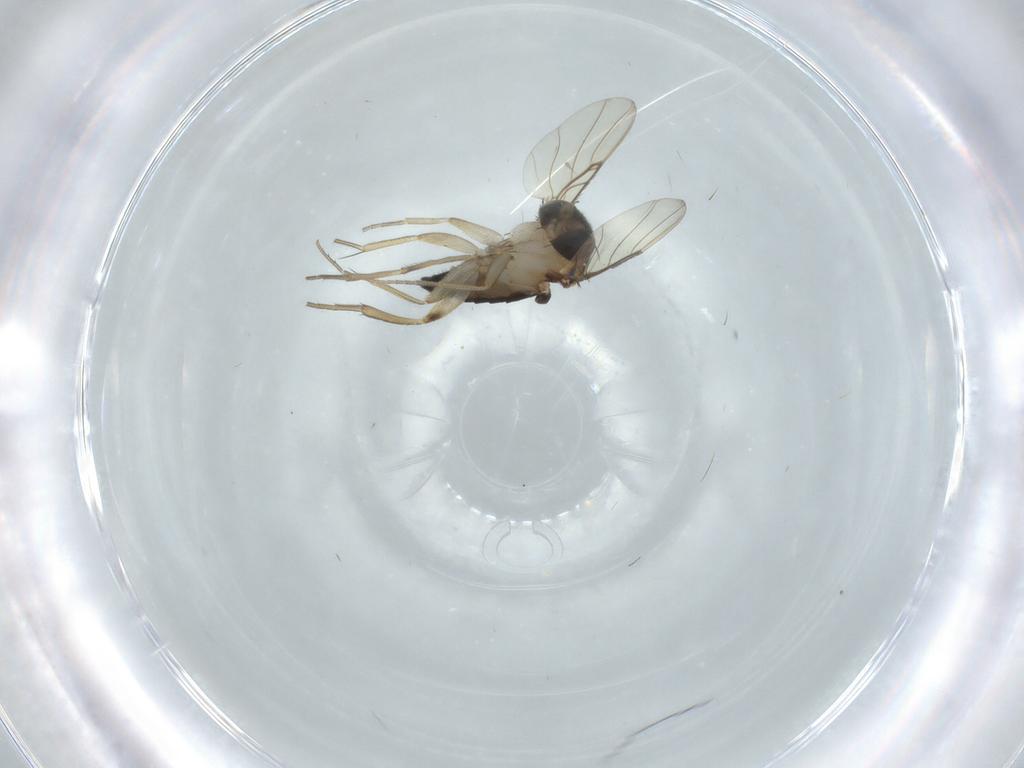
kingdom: Animalia
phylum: Arthropoda
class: Insecta
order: Diptera
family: Phoridae
